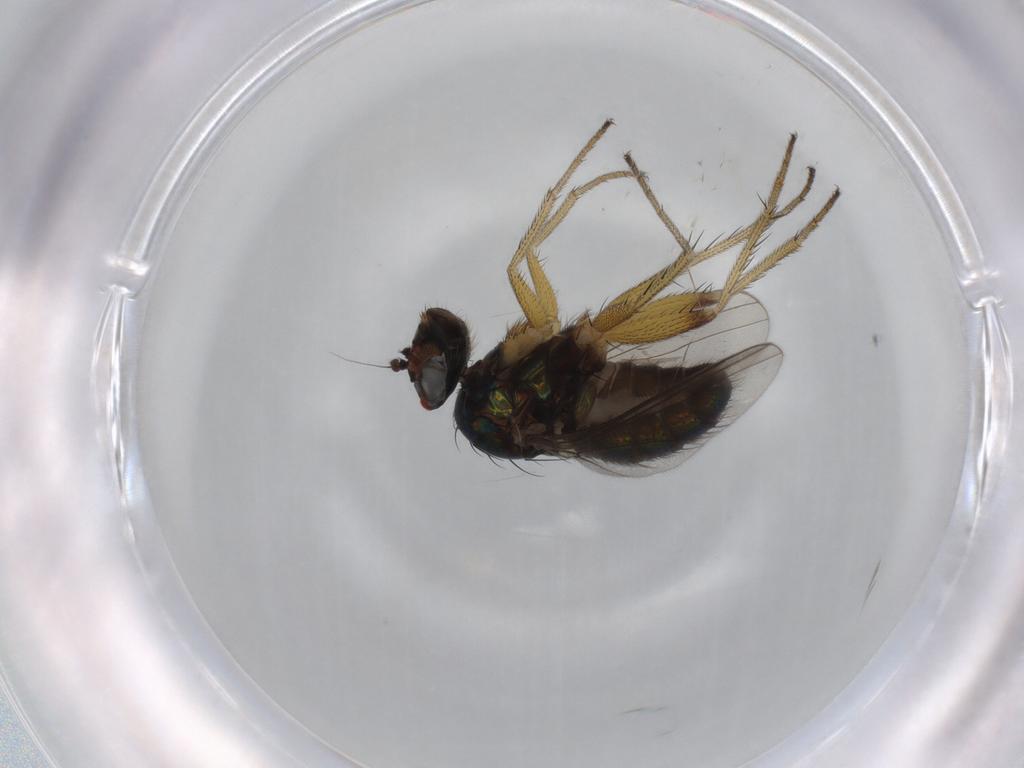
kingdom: Animalia
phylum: Arthropoda
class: Insecta
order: Diptera
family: Dolichopodidae
